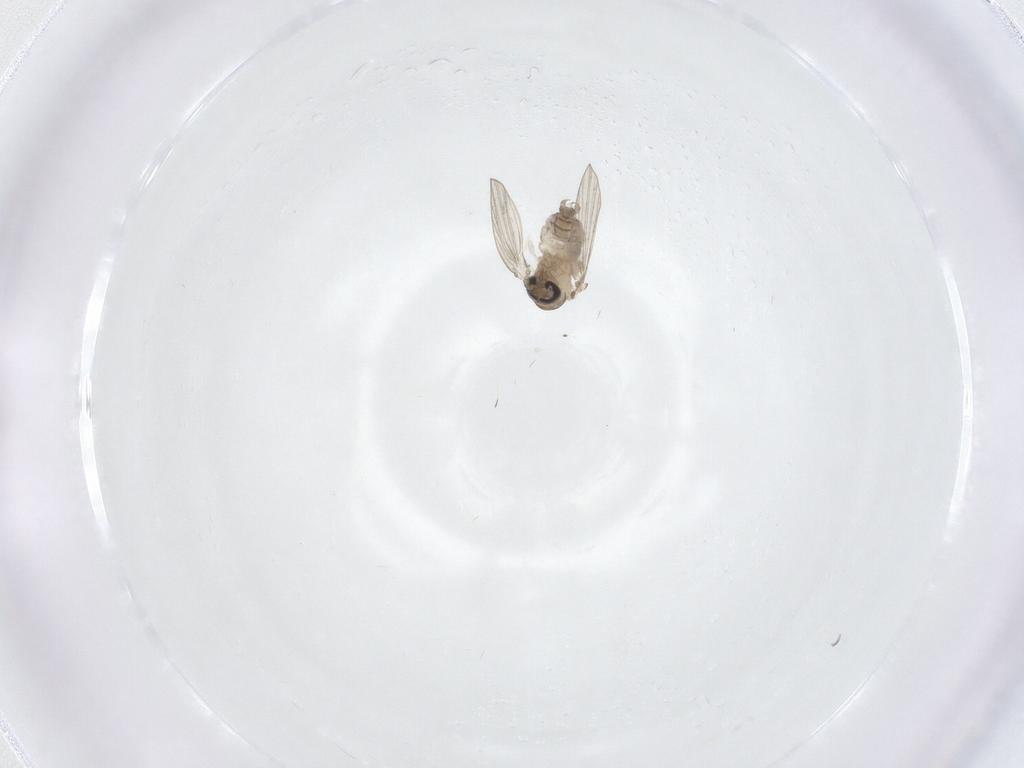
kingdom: Animalia
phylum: Arthropoda
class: Insecta
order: Diptera
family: Psychodidae
